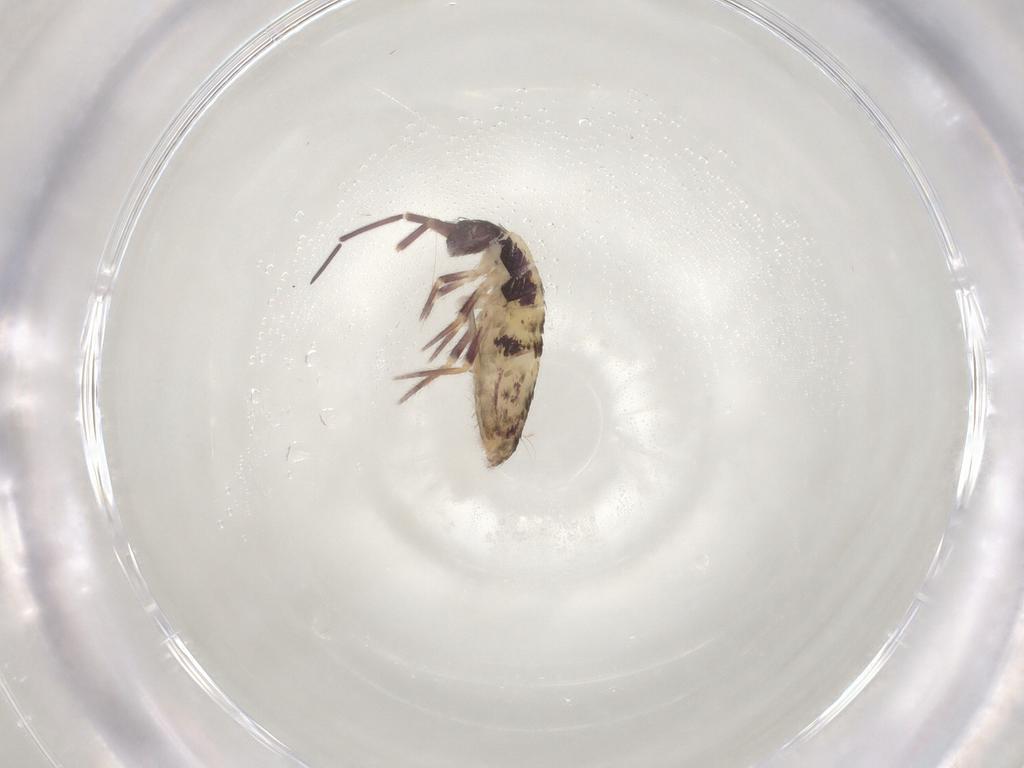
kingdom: Animalia
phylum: Arthropoda
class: Collembola
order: Entomobryomorpha
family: Entomobryidae
